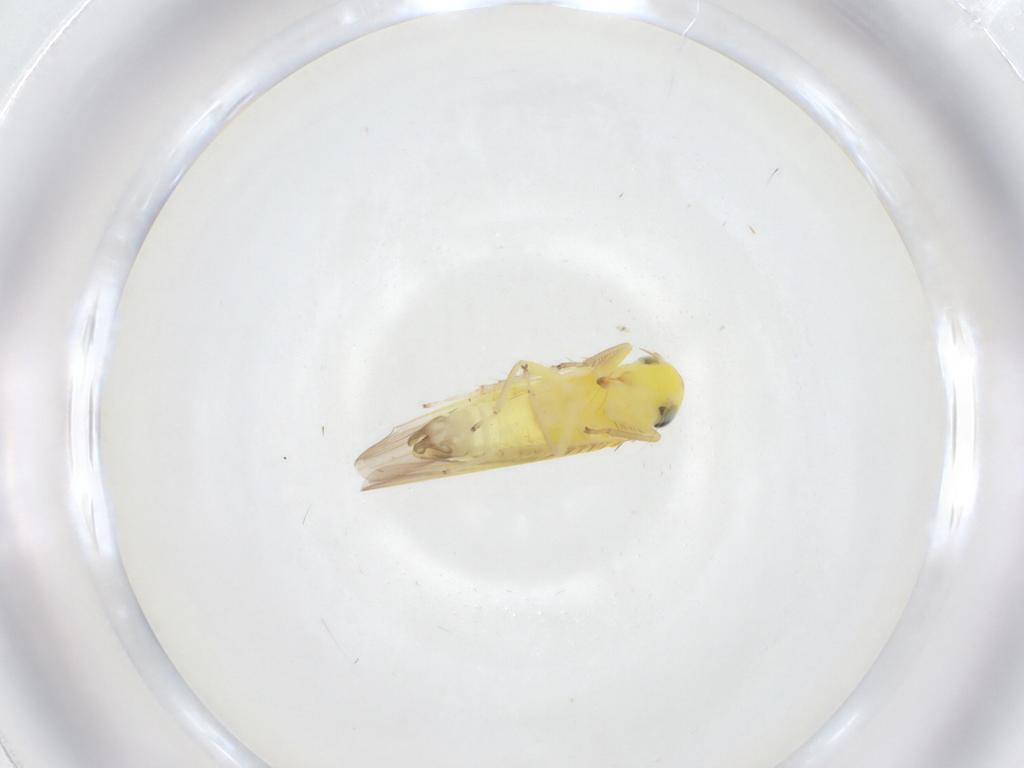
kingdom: Animalia
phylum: Arthropoda
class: Insecta
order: Hemiptera
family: Cicadellidae
